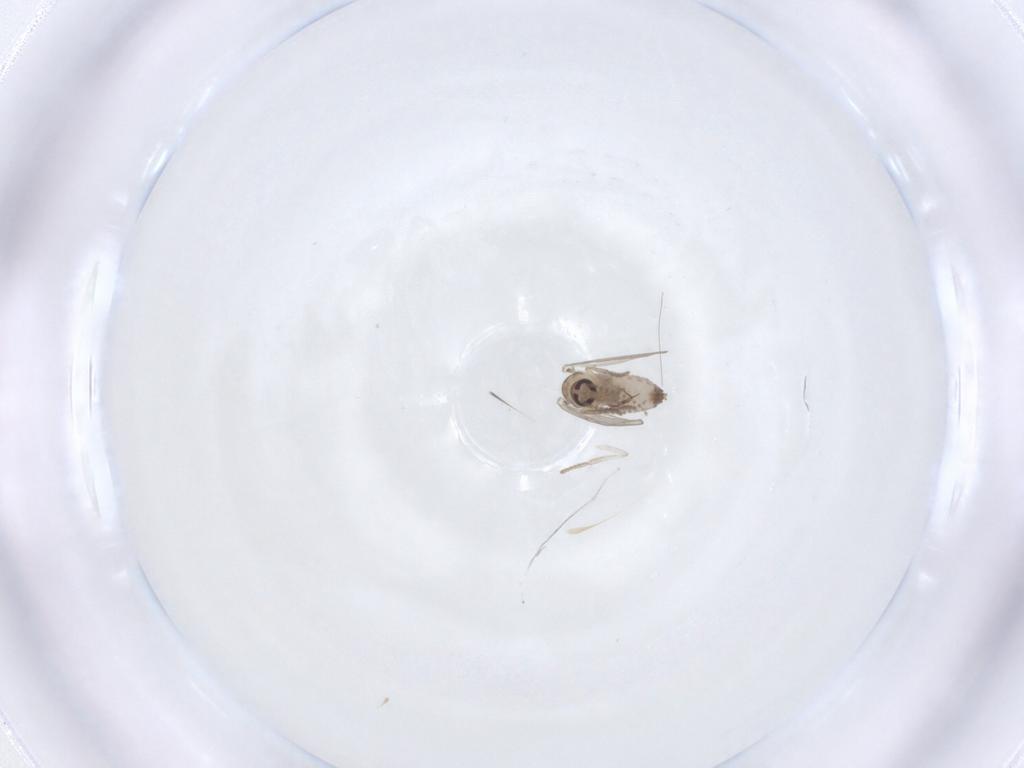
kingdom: Animalia
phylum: Arthropoda
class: Insecta
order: Diptera
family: Psychodidae
